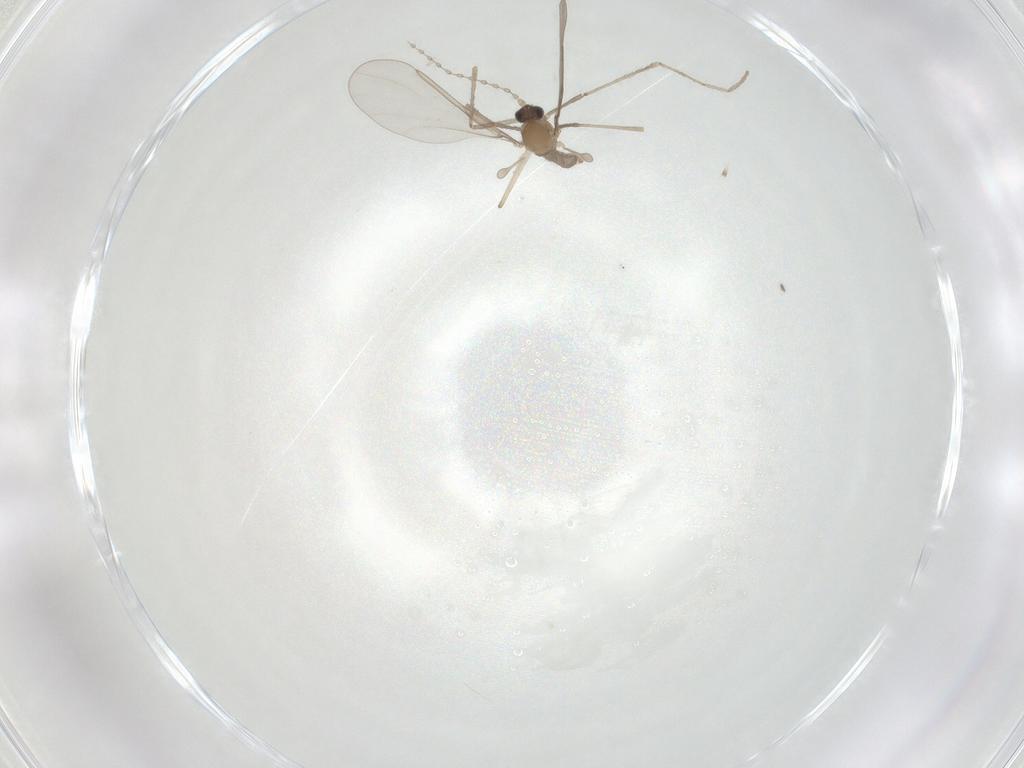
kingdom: Animalia
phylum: Arthropoda
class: Insecta
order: Diptera
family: Cecidomyiidae
